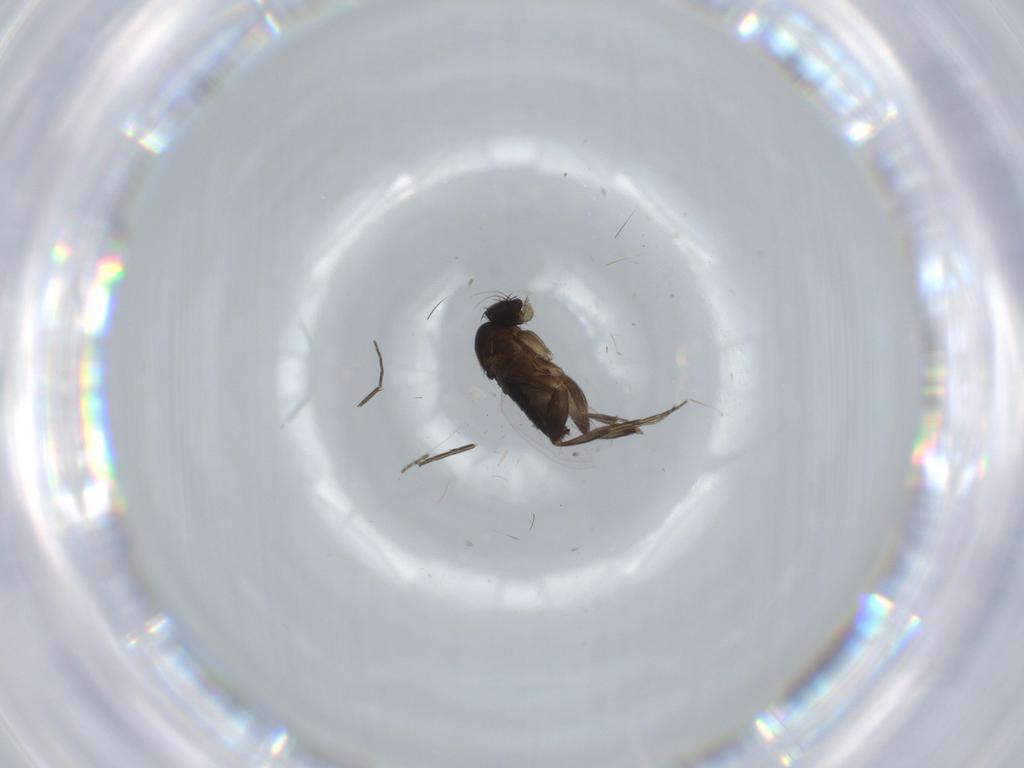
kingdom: Animalia
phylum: Arthropoda
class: Insecta
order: Diptera
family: Phoridae
